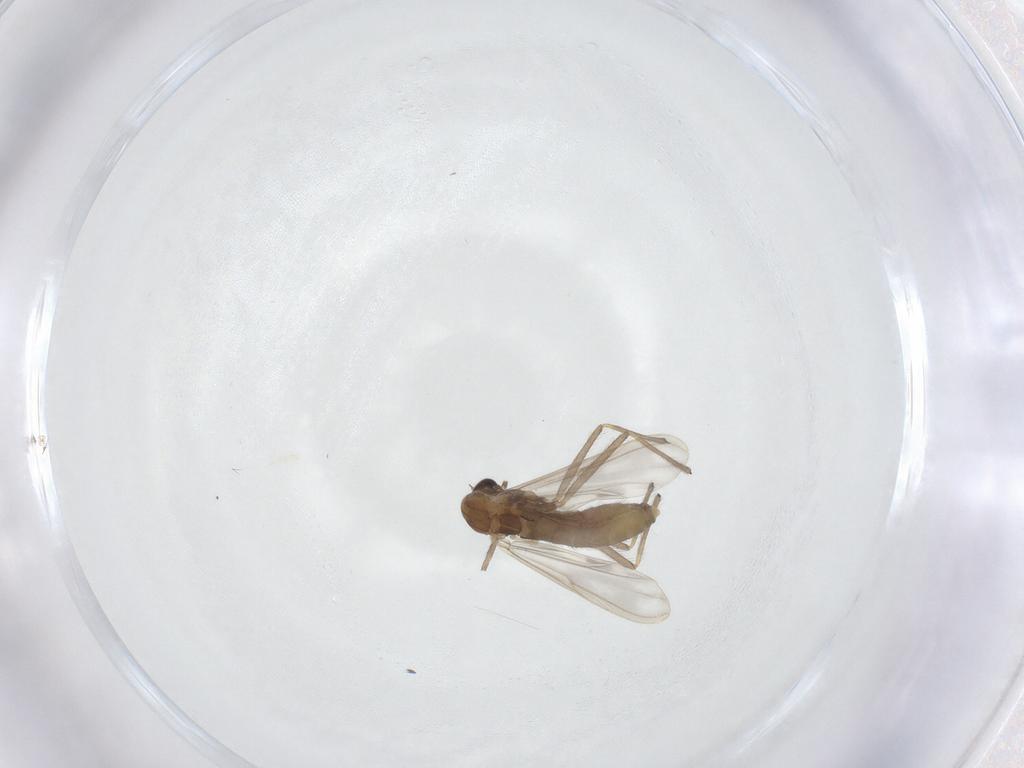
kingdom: Animalia
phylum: Arthropoda
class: Insecta
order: Diptera
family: Chironomidae
